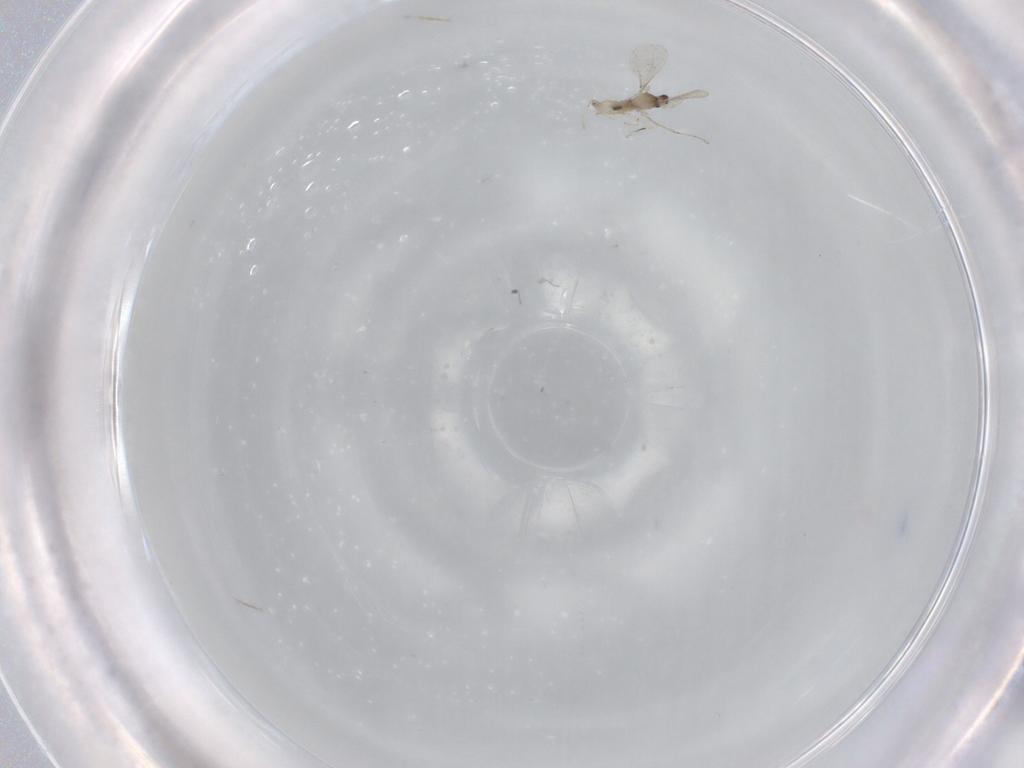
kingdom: Animalia
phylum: Arthropoda
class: Insecta
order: Diptera
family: Cecidomyiidae
